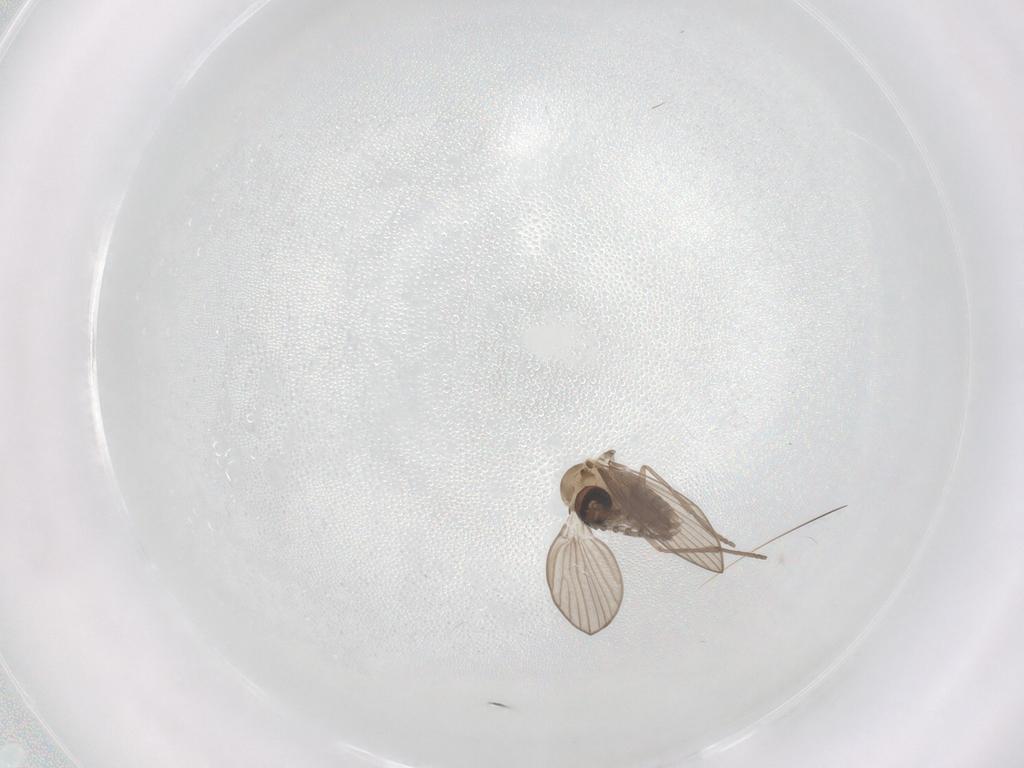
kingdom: Animalia
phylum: Arthropoda
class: Insecta
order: Diptera
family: Psychodidae
